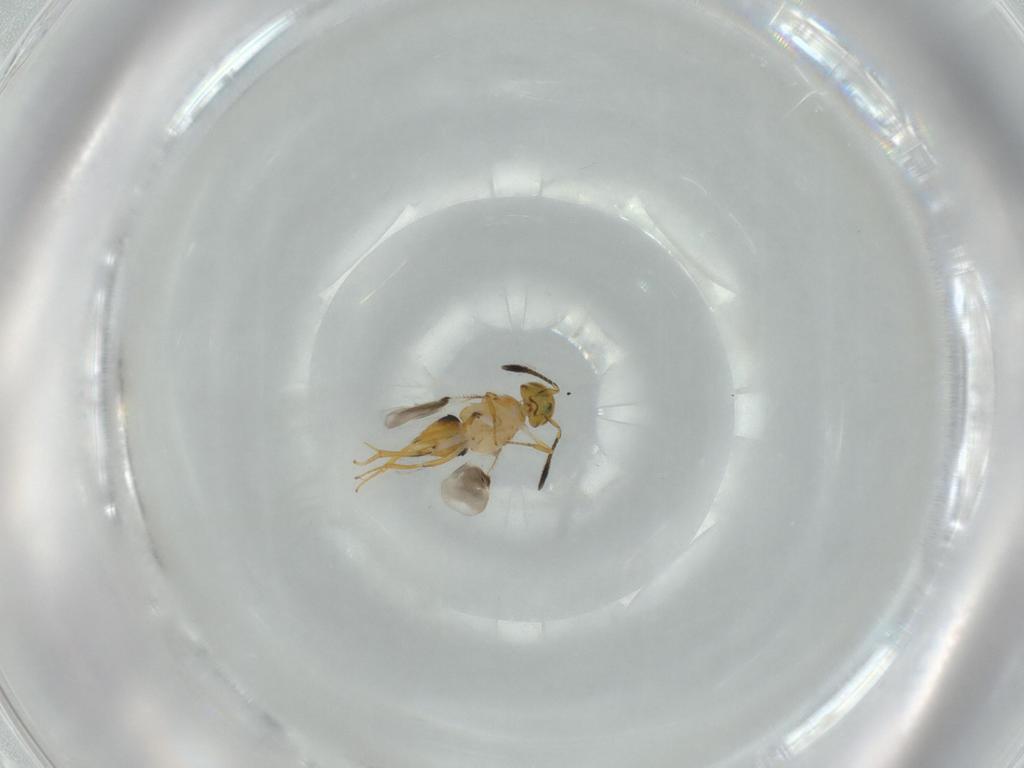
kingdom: Animalia
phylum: Arthropoda
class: Insecta
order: Hymenoptera
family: Encyrtidae
